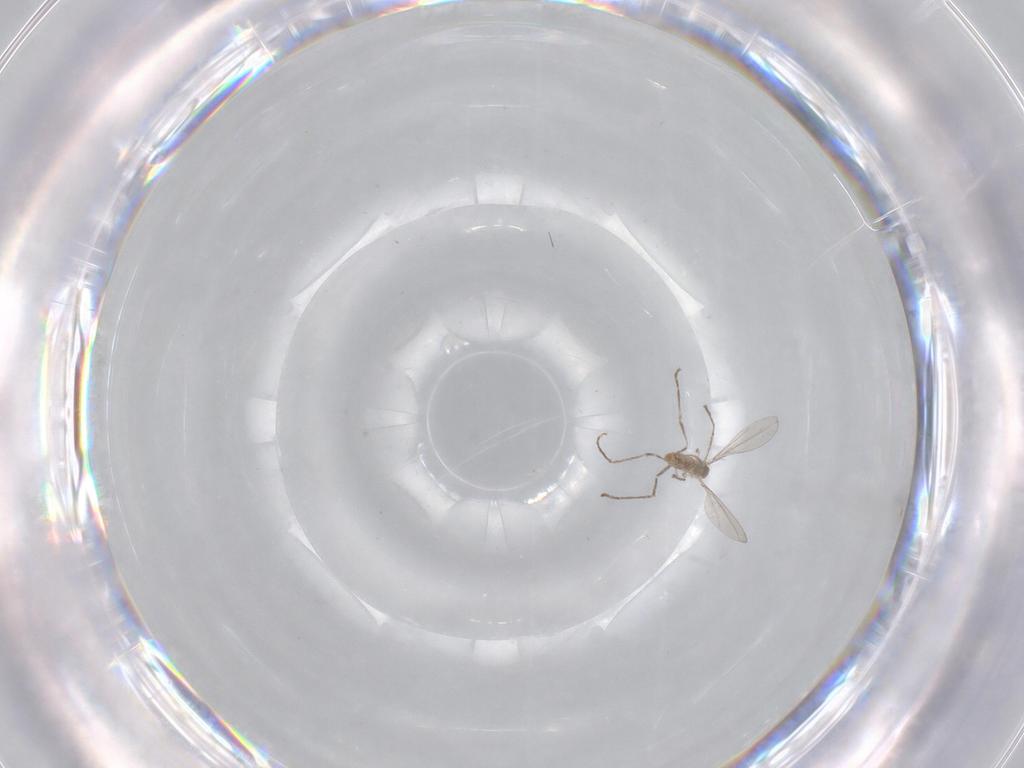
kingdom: Animalia
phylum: Arthropoda
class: Insecta
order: Diptera
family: Cecidomyiidae
